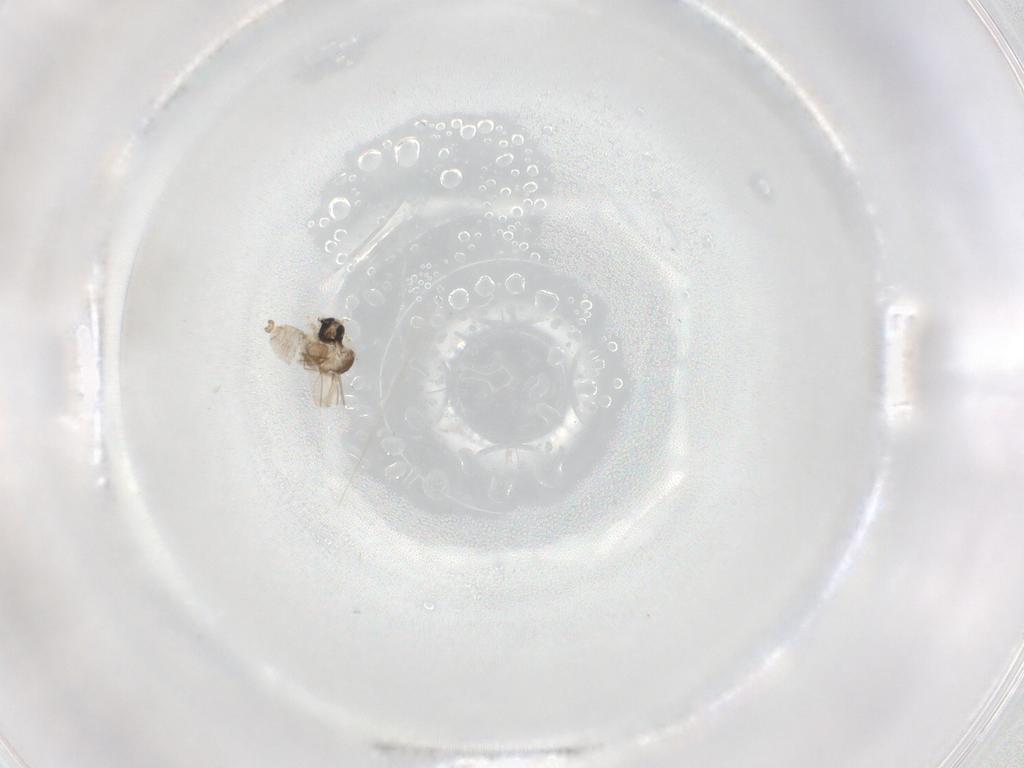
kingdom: Animalia
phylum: Arthropoda
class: Insecta
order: Diptera
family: Cecidomyiidae
